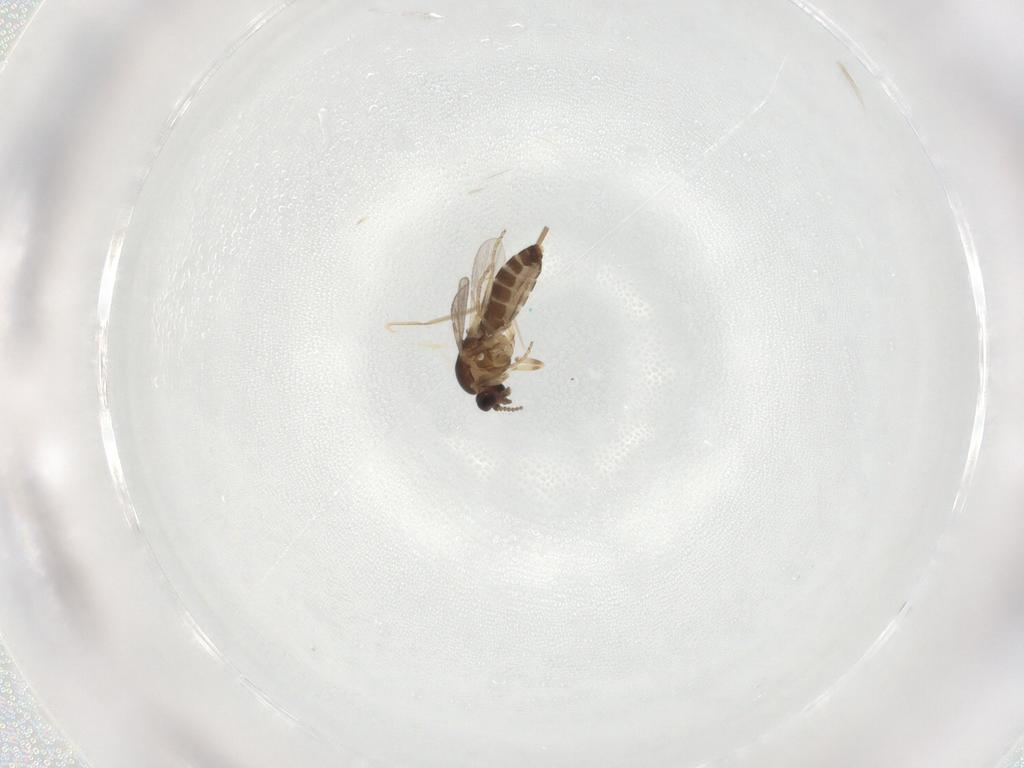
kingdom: Animalia
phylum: Arthropoda
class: Insecta
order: Diptera
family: Ceratopogonidae
